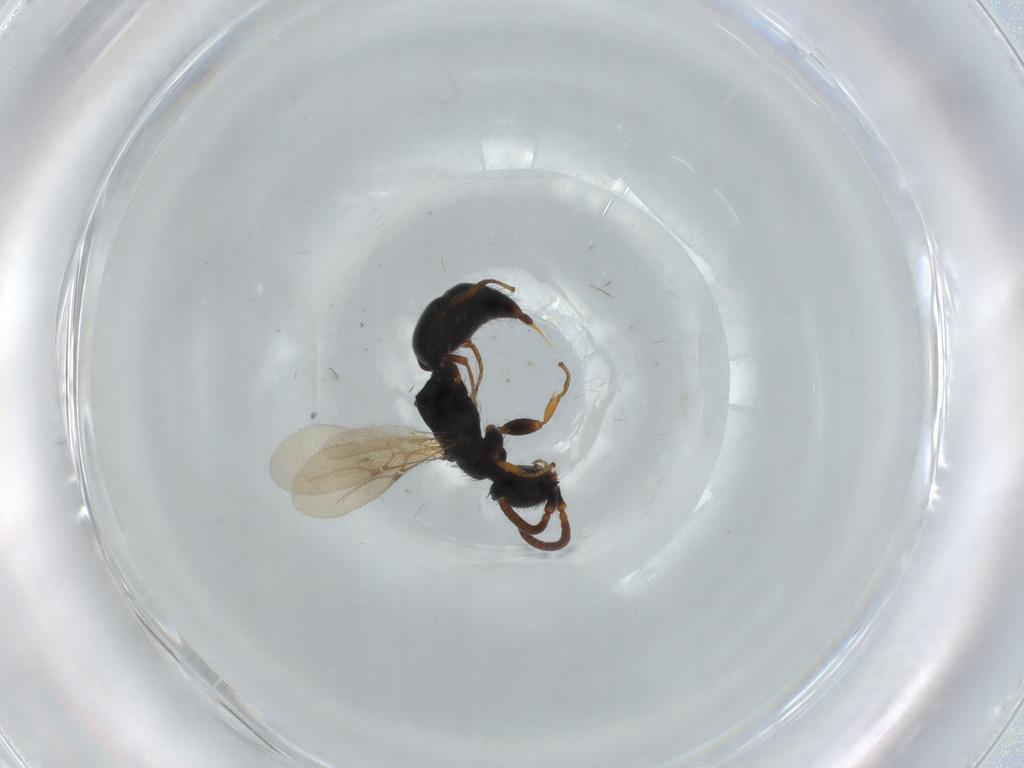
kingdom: Animalia
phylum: Arthropoda
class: Insecta
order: Hymenoptera
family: Bethylidae
